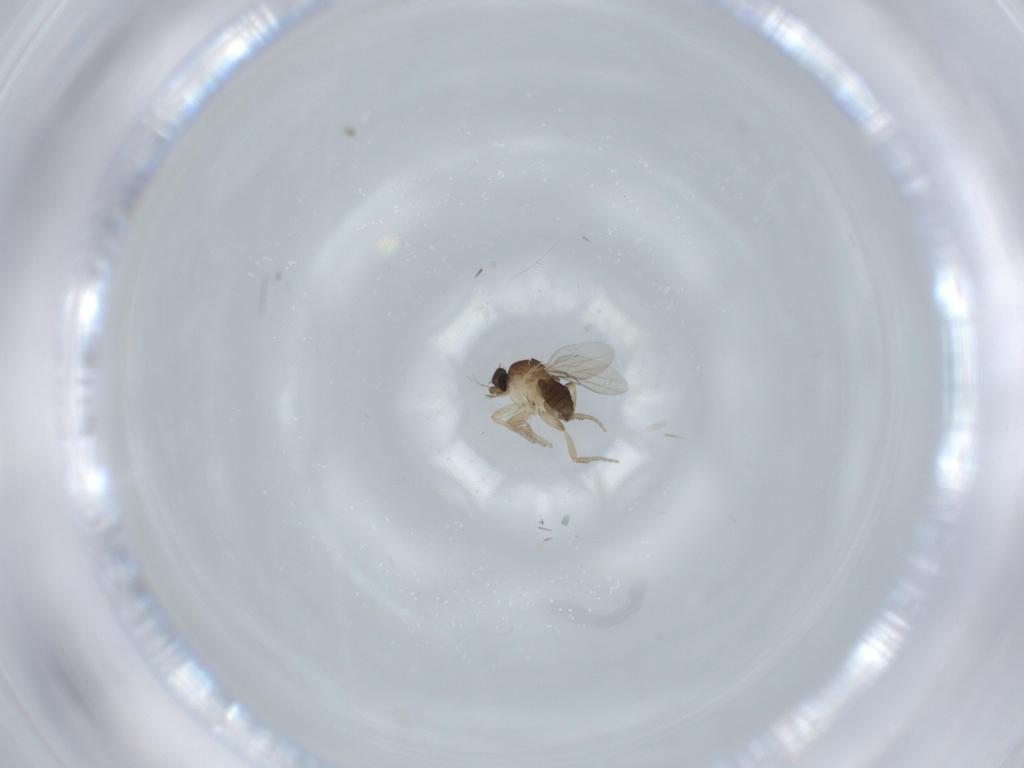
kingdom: Animalia
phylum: Arthropoda
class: Insecta
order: Diptera
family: Phoridae
